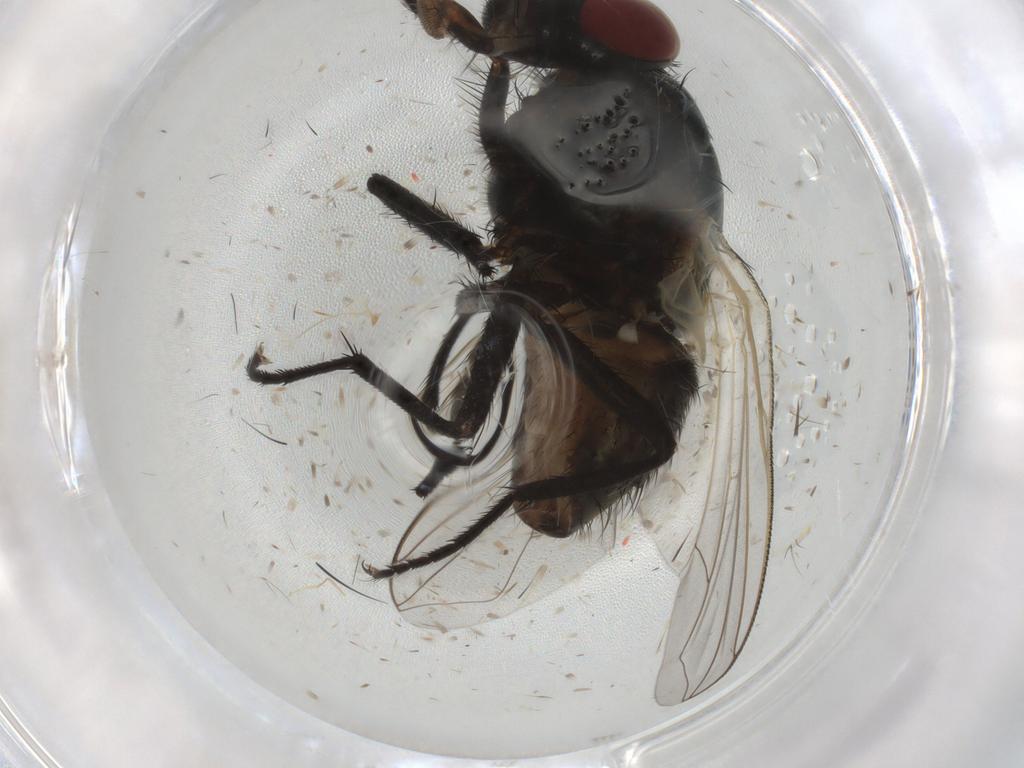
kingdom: Animalia
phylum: Arthropoda
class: Insecta
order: Diptera
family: Muscidae
